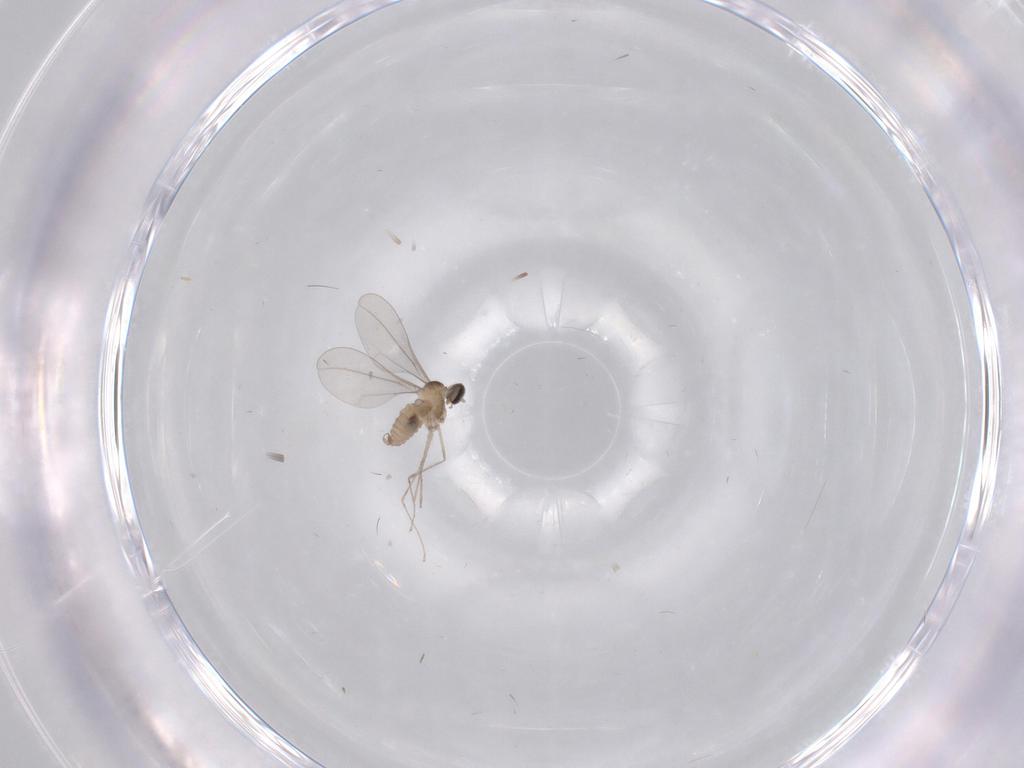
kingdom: Animalia
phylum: Arthropoda
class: Insecta
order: Diptera
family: Cecidomyiidae
